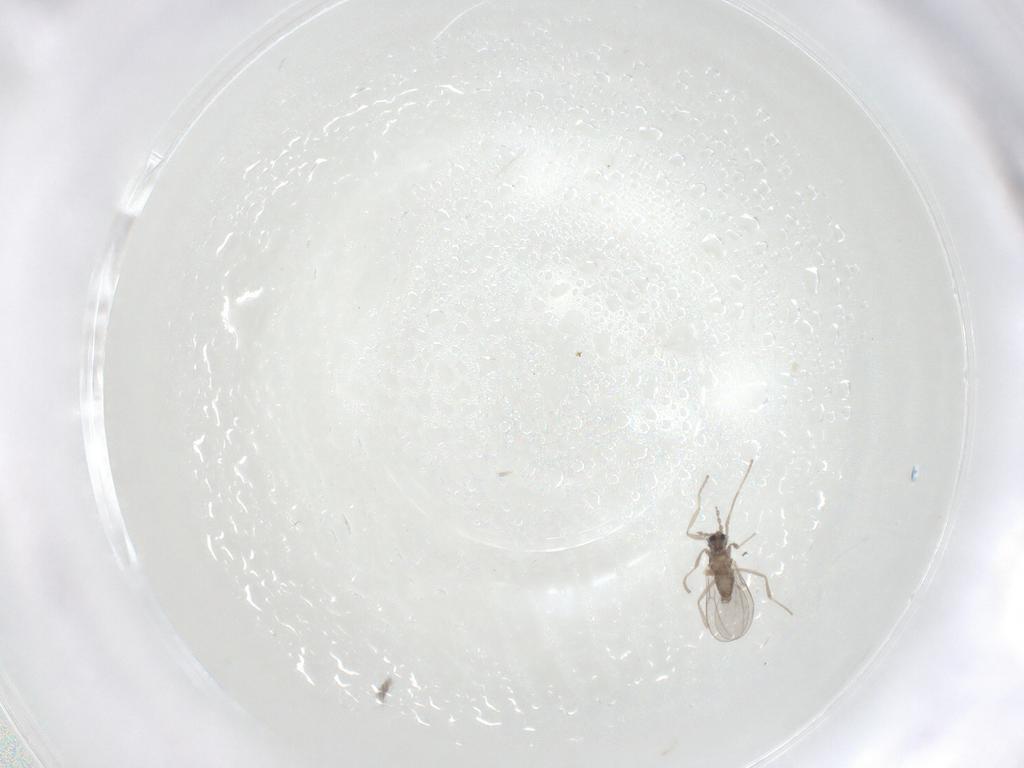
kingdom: Animalia
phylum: Arthropoda
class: Insecta
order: Diptera
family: Cecidomyiidae
